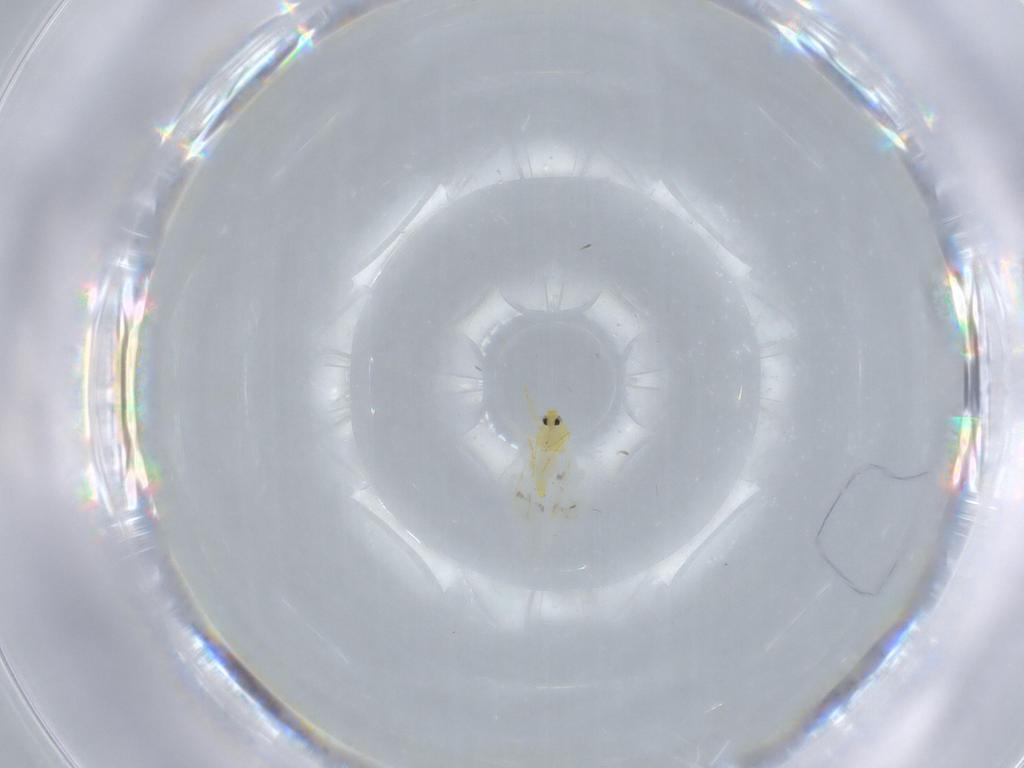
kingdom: Animalia
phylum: Arthropoda
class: Insecta
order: Hemiptera
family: Aleyrodidae
